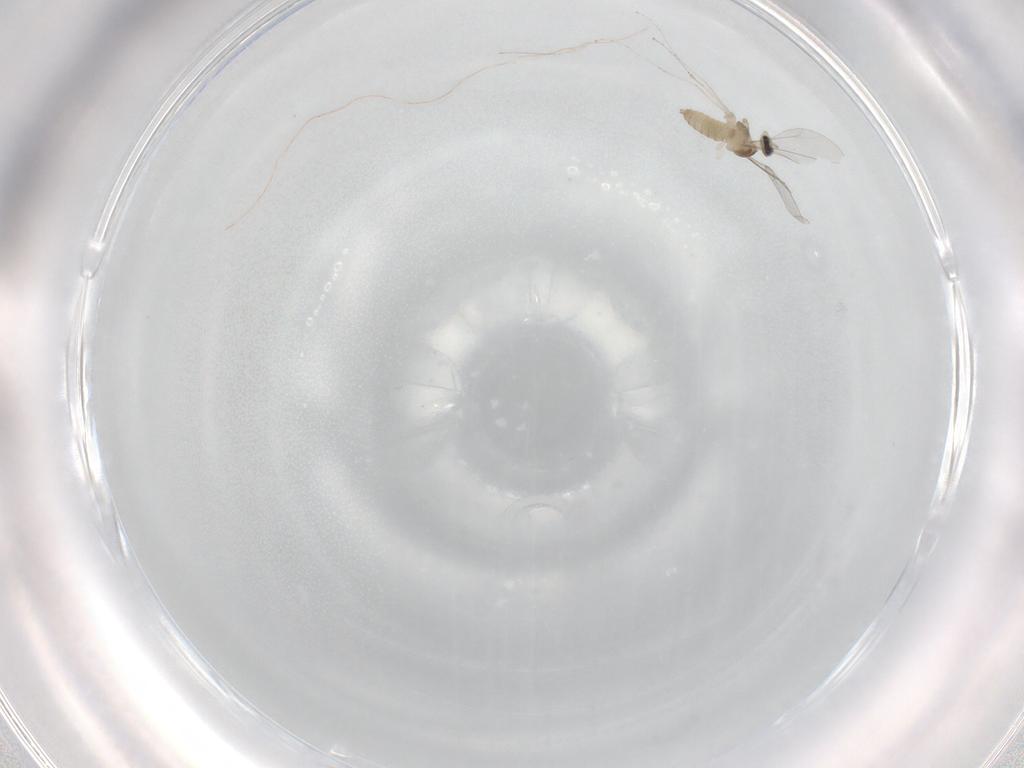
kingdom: Animalia
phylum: Arthropoda
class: Insecta
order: Diptera
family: Cecidomyiidae
